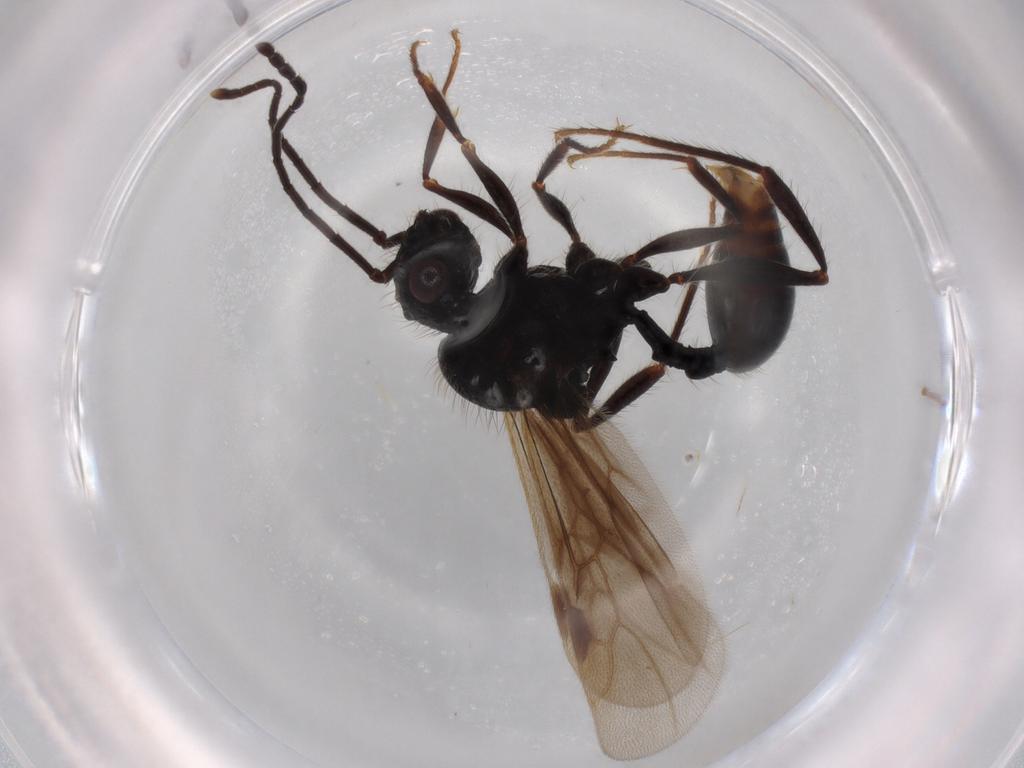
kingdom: Animalia
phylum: Arthropoda
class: Insecta
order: Hymenoptera
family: Formicidae
